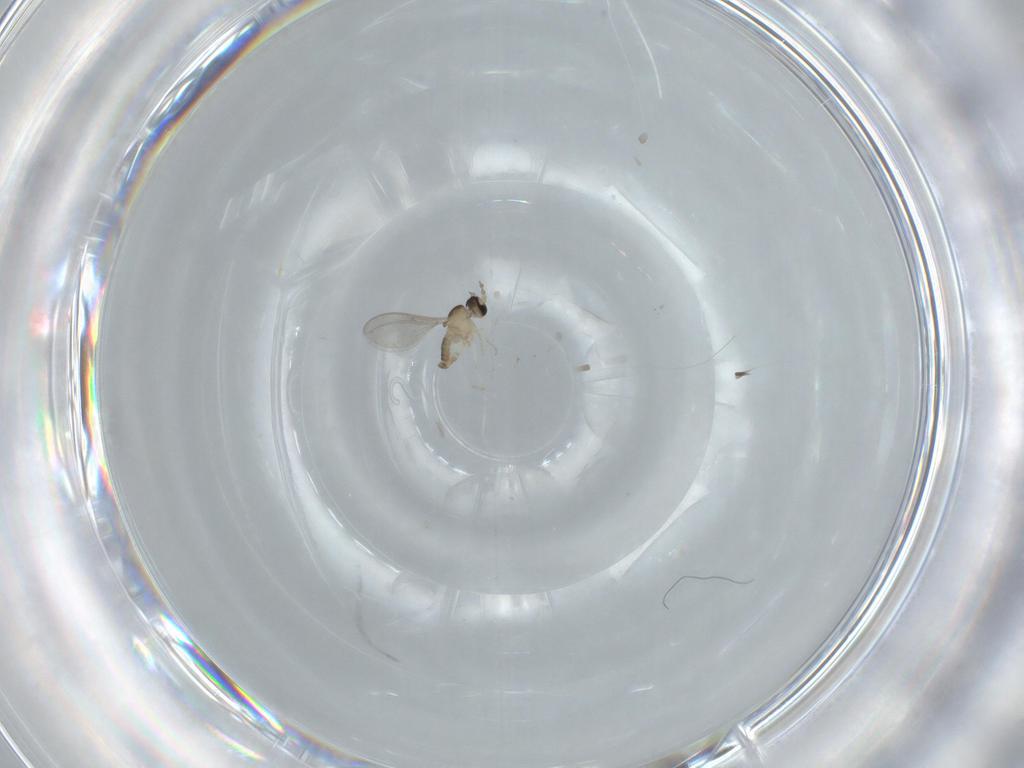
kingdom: Animalia
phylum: Arthropoda
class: Insecta
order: Diptera
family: Cecidomyiidae
